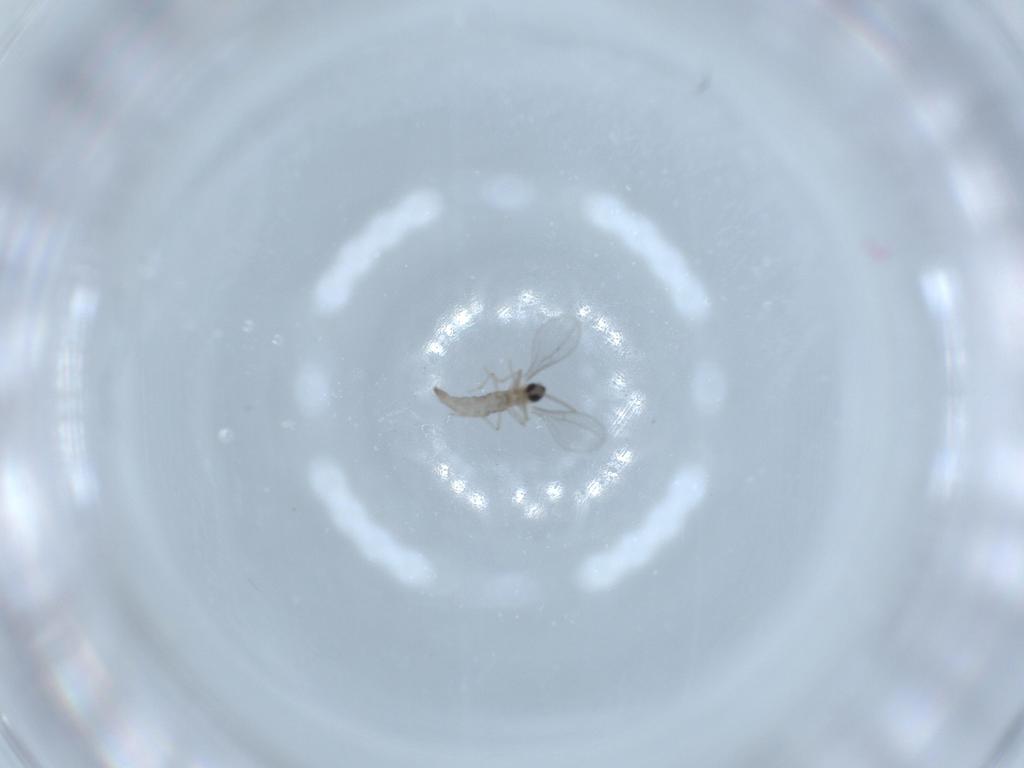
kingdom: Animalia
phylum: Arthropoda
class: Insecta
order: Diptera
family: Cecidomyiidae
